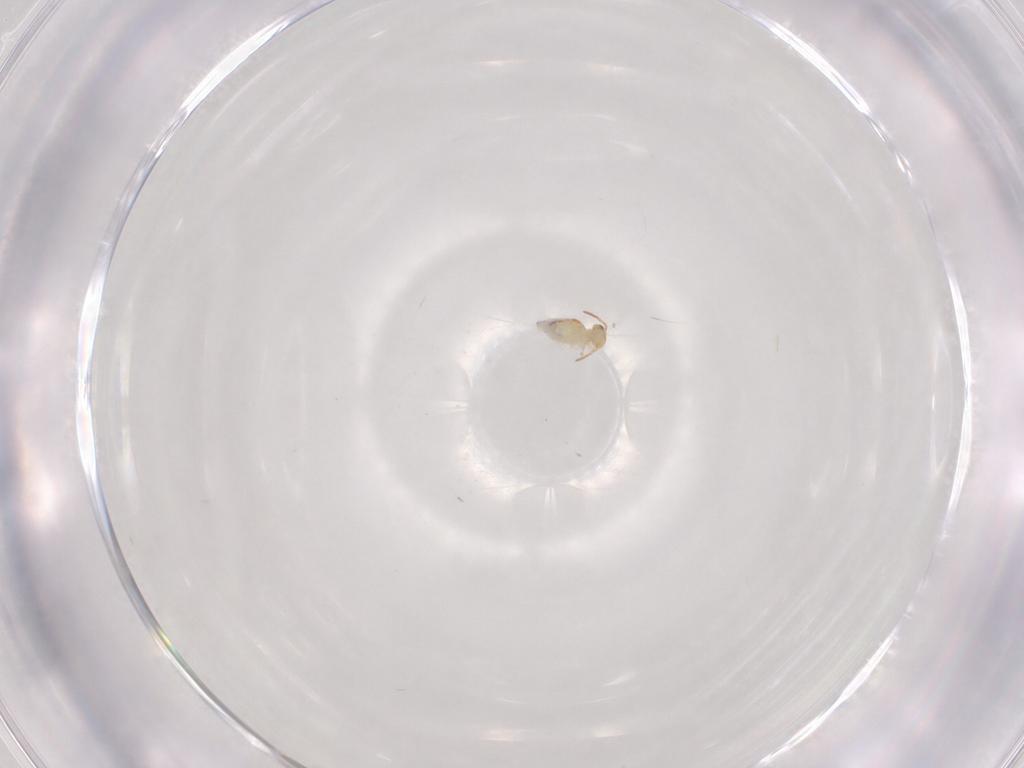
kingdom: Animalia
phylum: Arthropoda
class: Collembola
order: Symphypleona
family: Bourletiellidae
